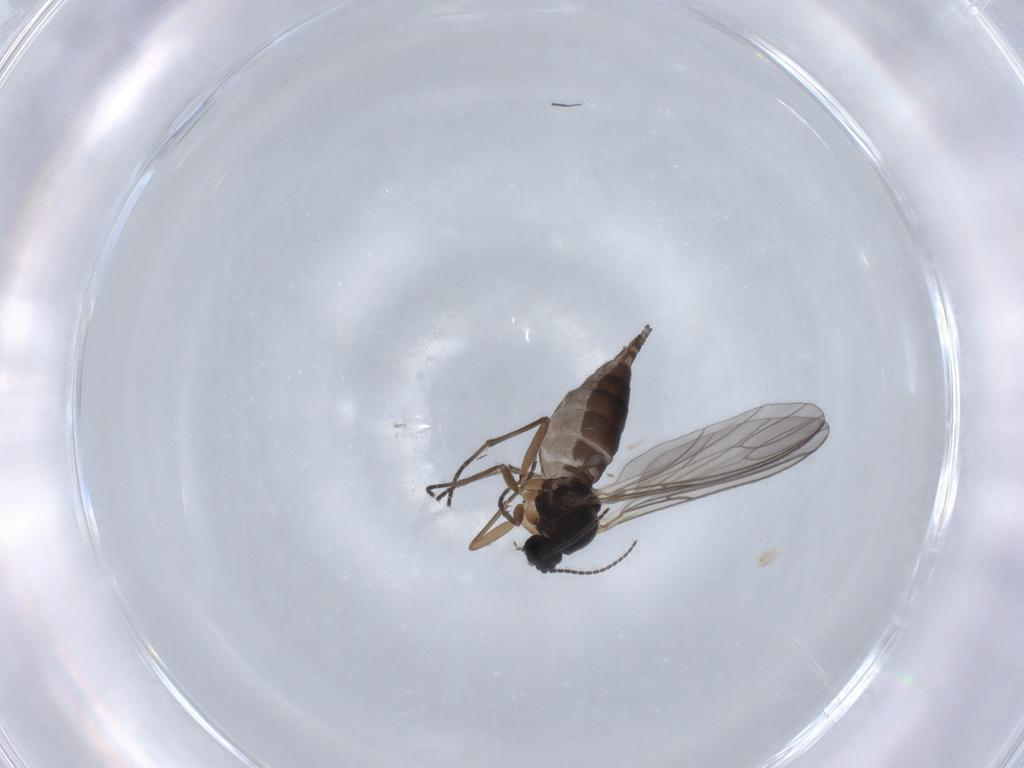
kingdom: Animalia
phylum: Arthropoda
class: Insecta
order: Diptera
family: Sciaridae
